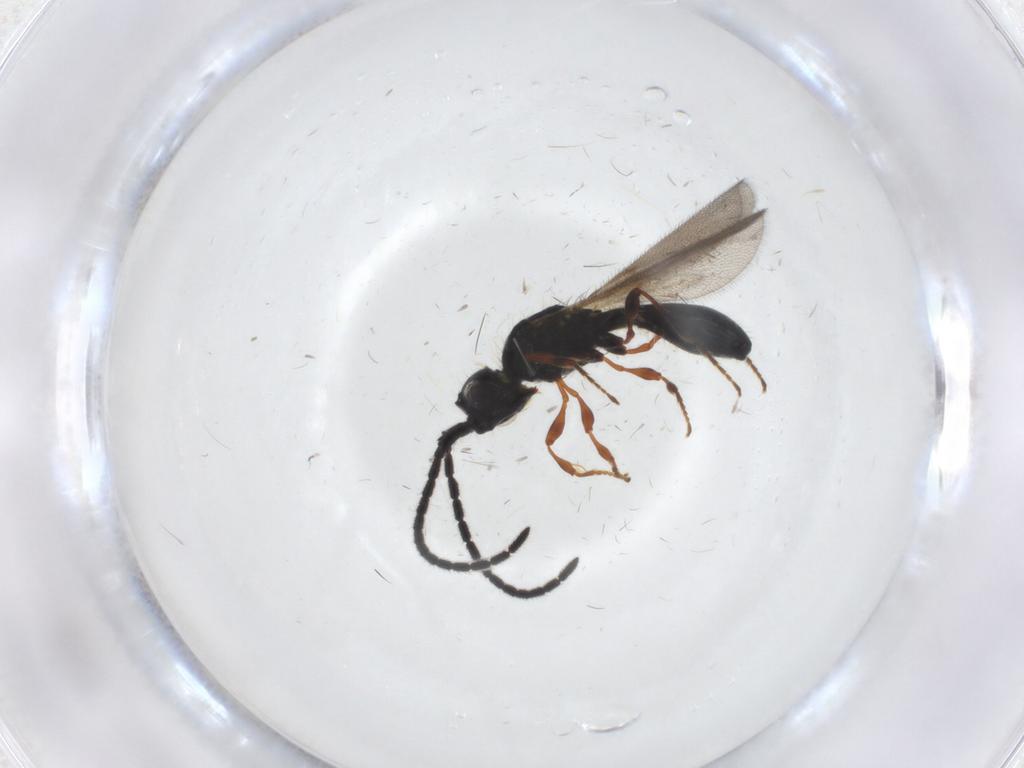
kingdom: Animalia
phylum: Arthropoda
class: Insecta
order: Hymenoptera
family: Diapriidae
